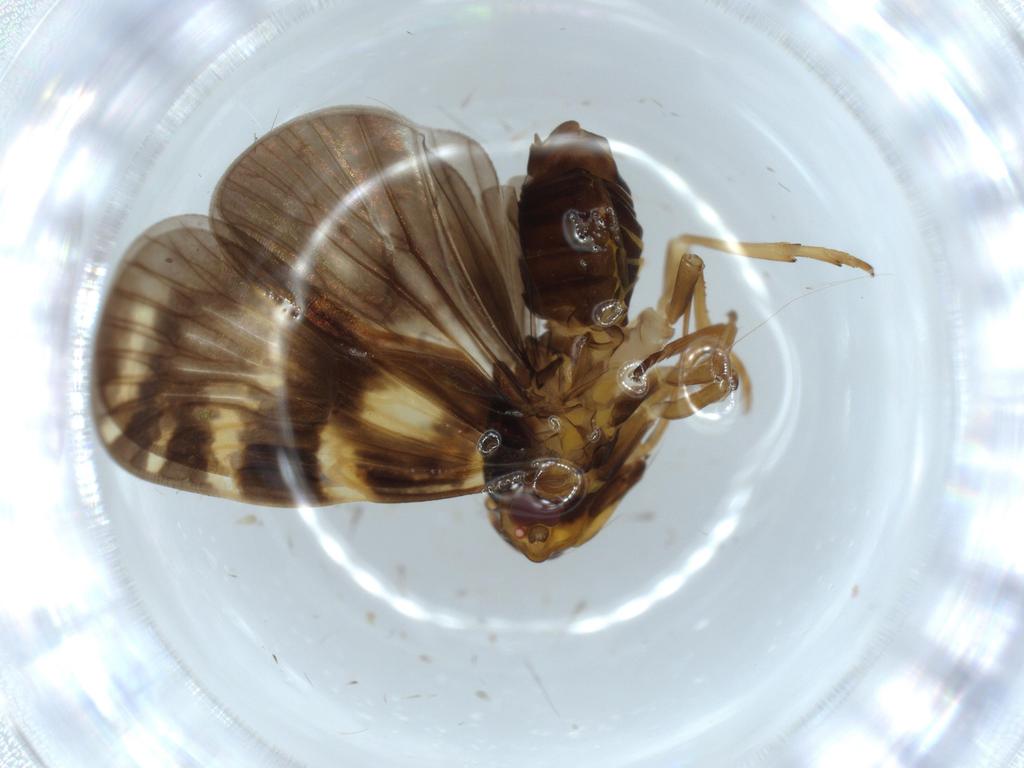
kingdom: Animalia
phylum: Arthropoda
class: Insecta
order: Hemiptera
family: Cixiidae
